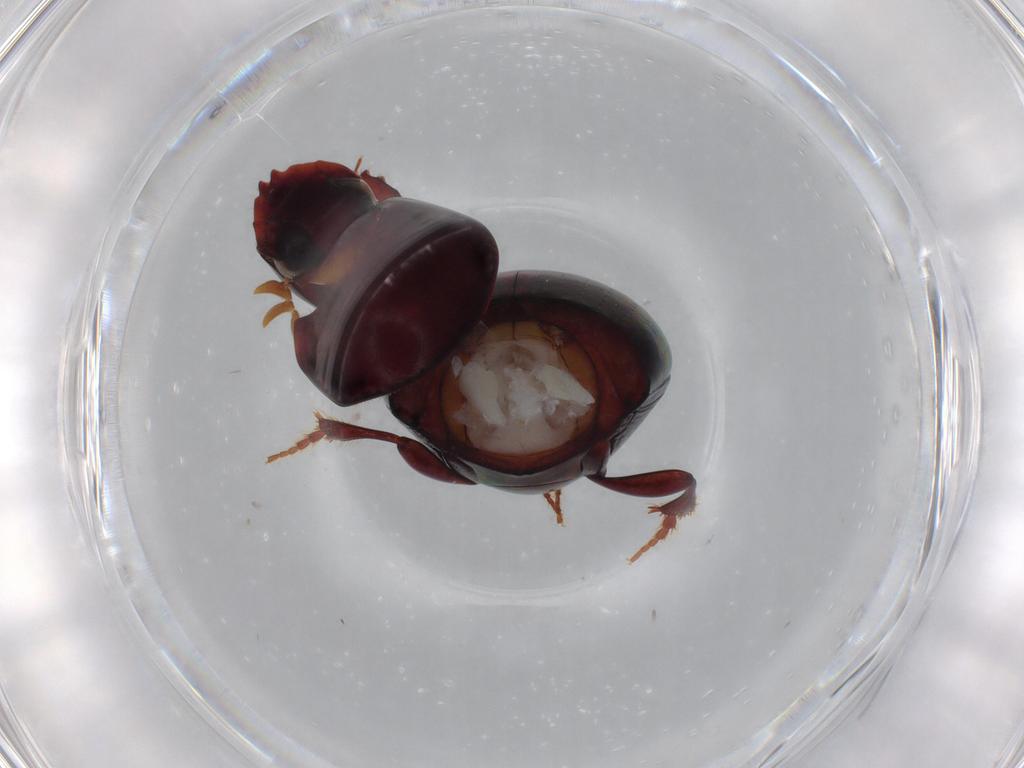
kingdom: Animalia
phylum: Arthropoda
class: Insecta
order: Coleoptera
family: Scarabaeidae
